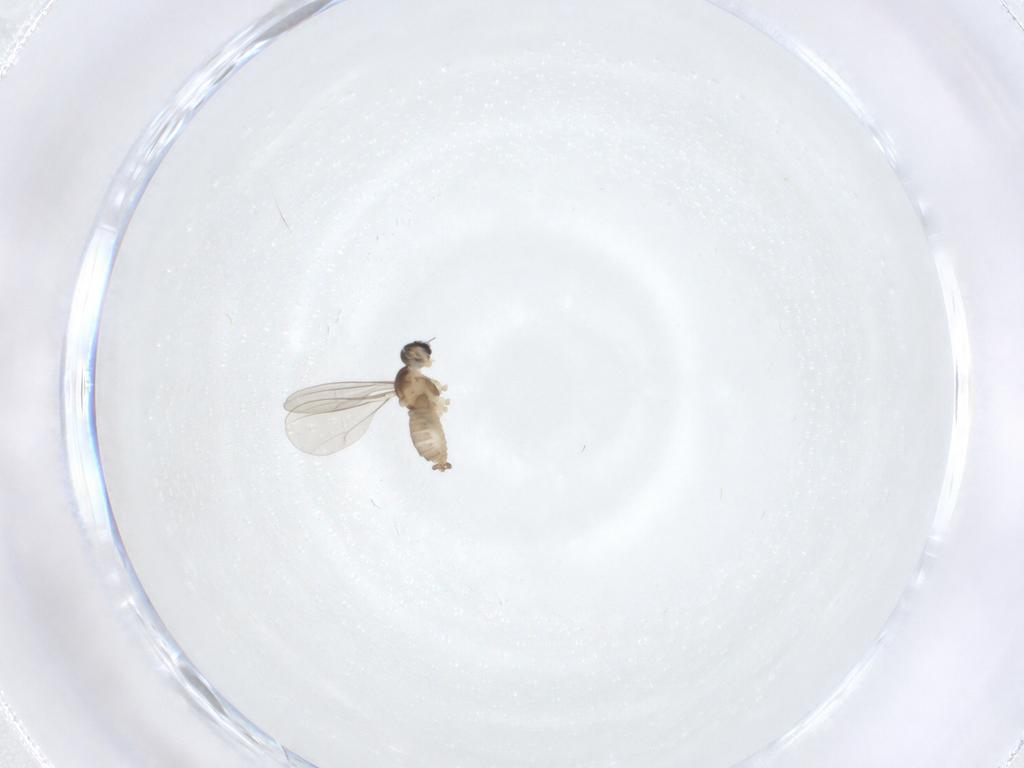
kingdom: Animalia
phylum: Arthropoda
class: Insecta
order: Diptera
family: Cecidomyiidae
